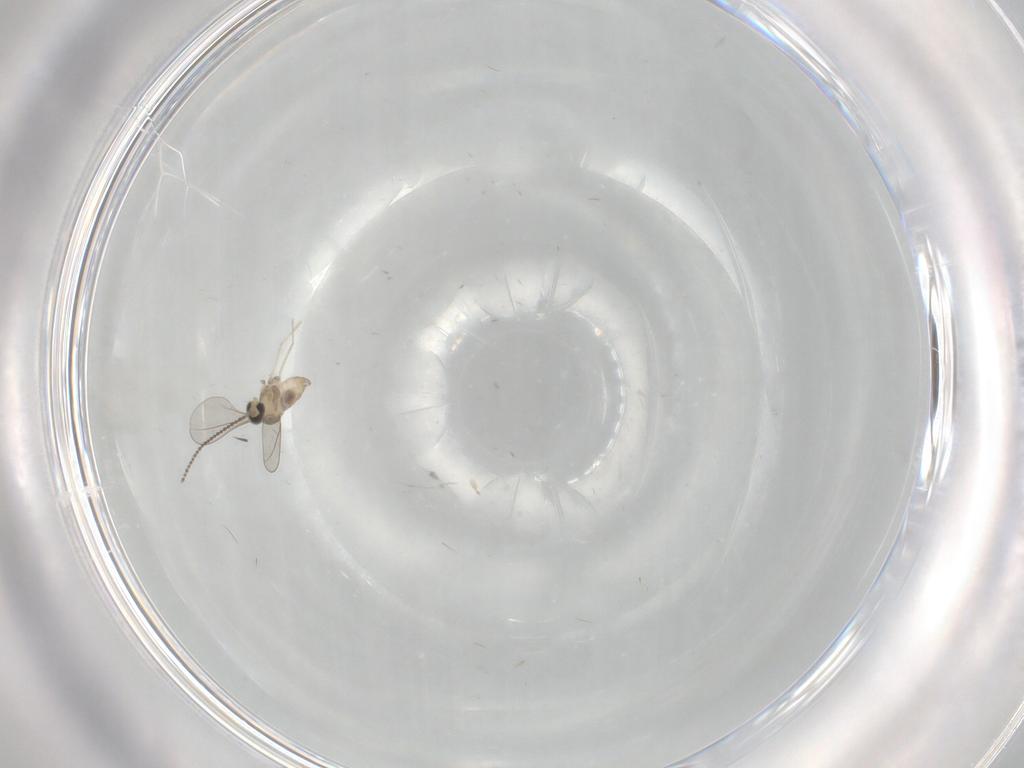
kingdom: Animalia
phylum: Arthropoda
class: Insecta
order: Diptera
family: Cecidomyiidae
